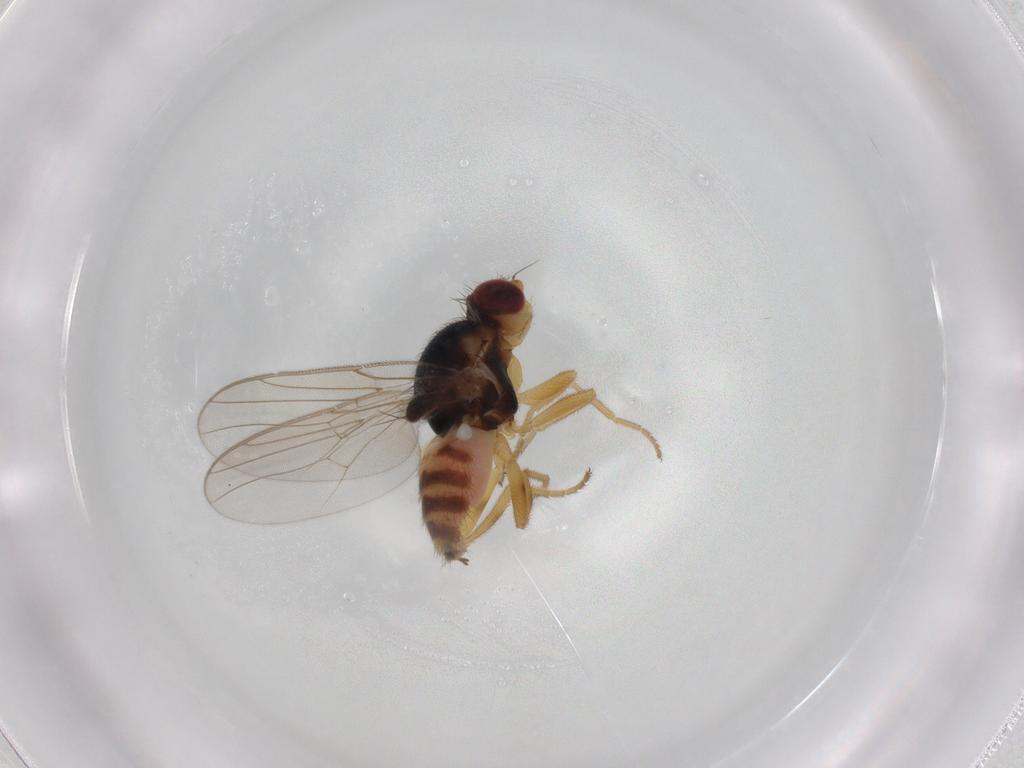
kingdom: Animalia
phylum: Arthropoda
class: Insecta
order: Diptera
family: Chloropidae
